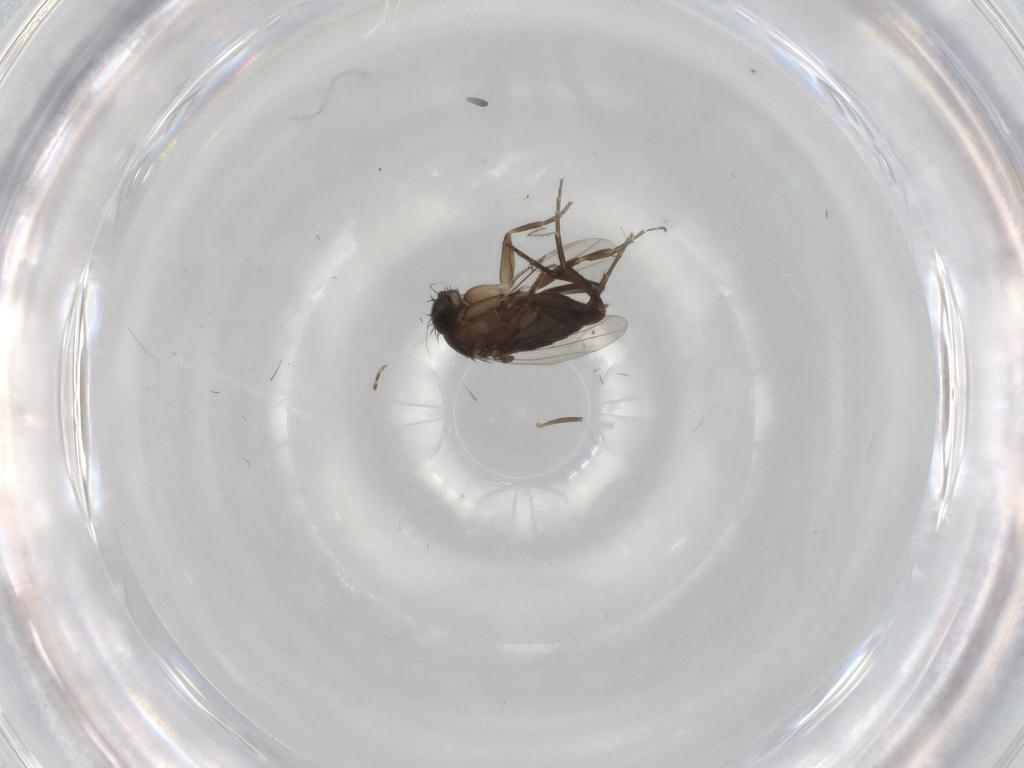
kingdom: Animalia
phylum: Arthropoda
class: Insecta
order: Diptera
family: Phoridae
